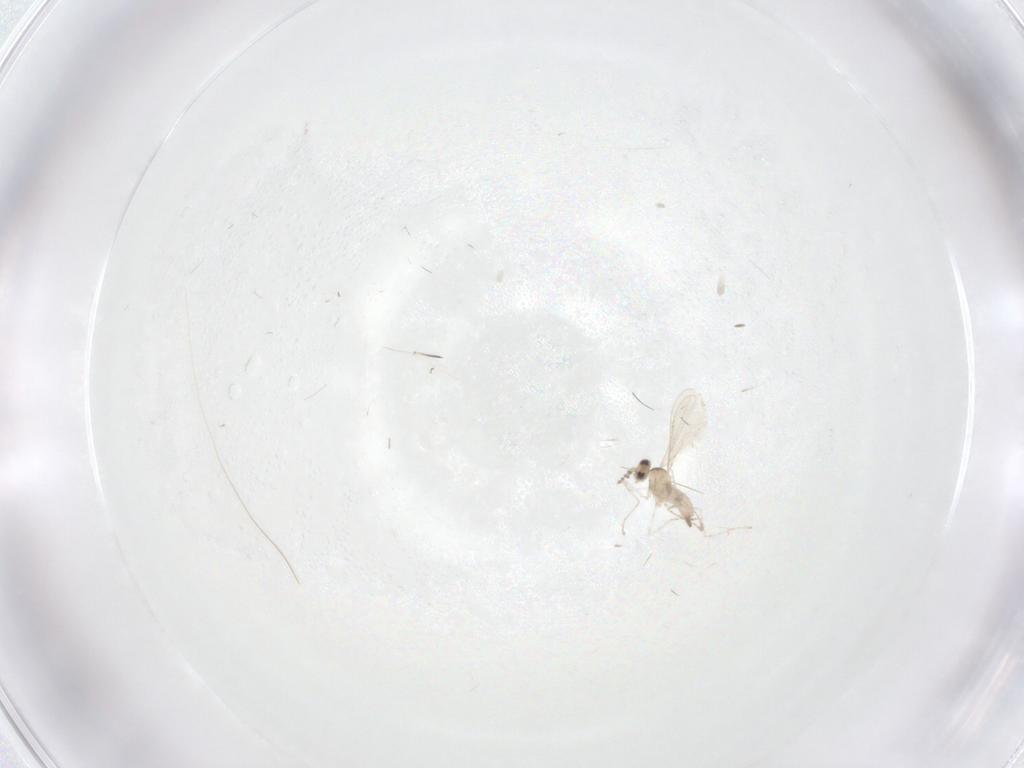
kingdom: Animalia
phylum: Arthropoda
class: Insecta
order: Diptera
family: Cecidomyiidae
